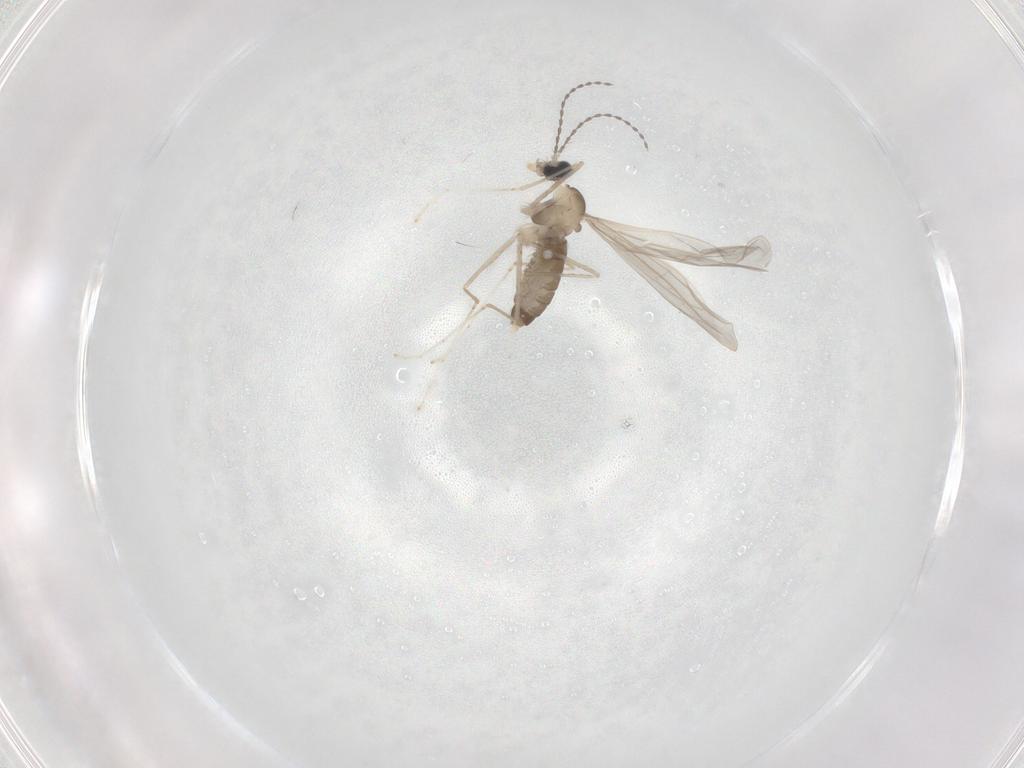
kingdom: Animalia
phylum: Arthropoda
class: Insecta
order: Diptera
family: Cecidomyiidae
